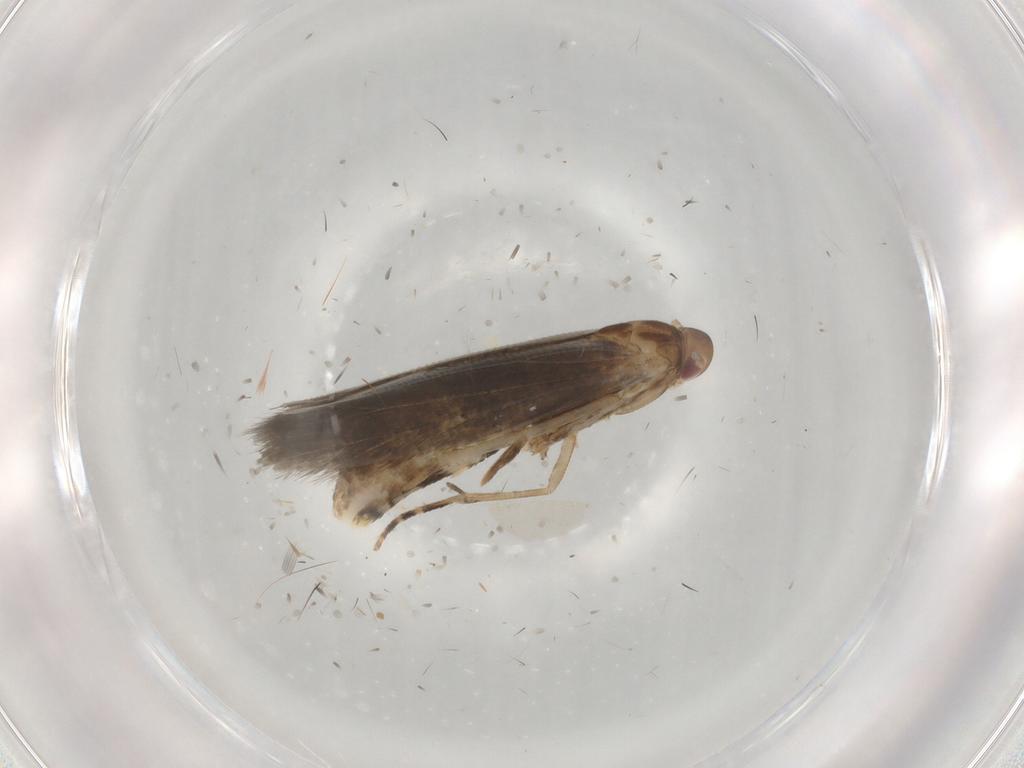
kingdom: Animalia
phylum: Arthropoda
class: Insecta
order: Lepidoptera
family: Momphidae
